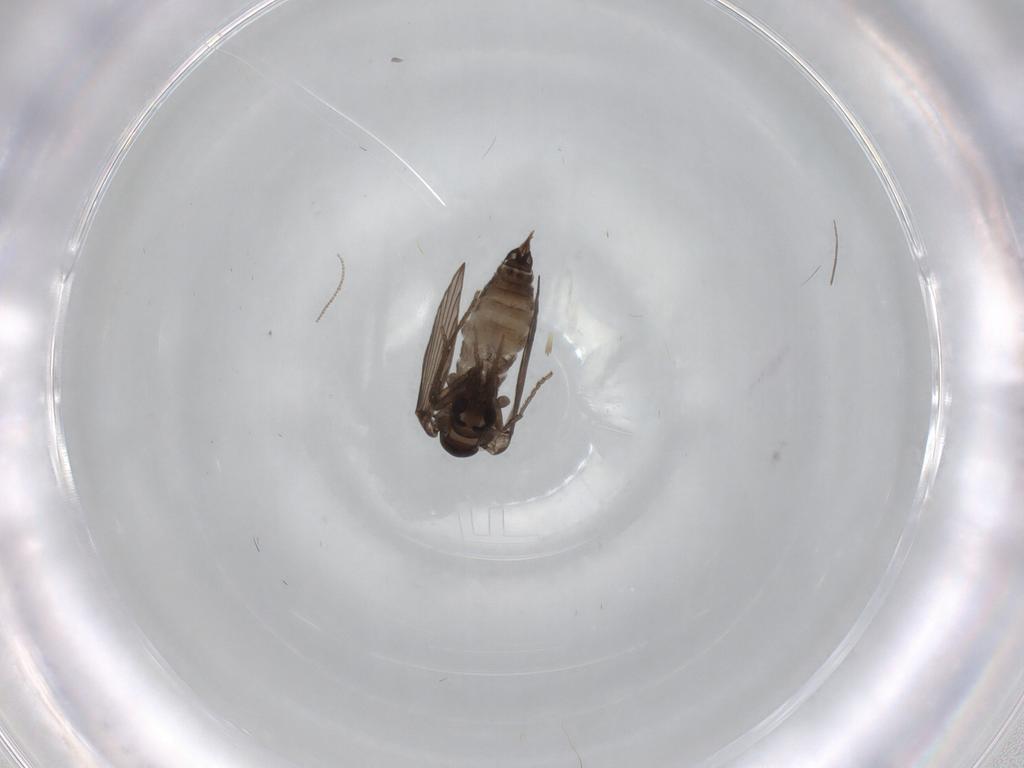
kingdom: Animalia
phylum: Arthropoda
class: Insecta
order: Diptera
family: Psychodidae
